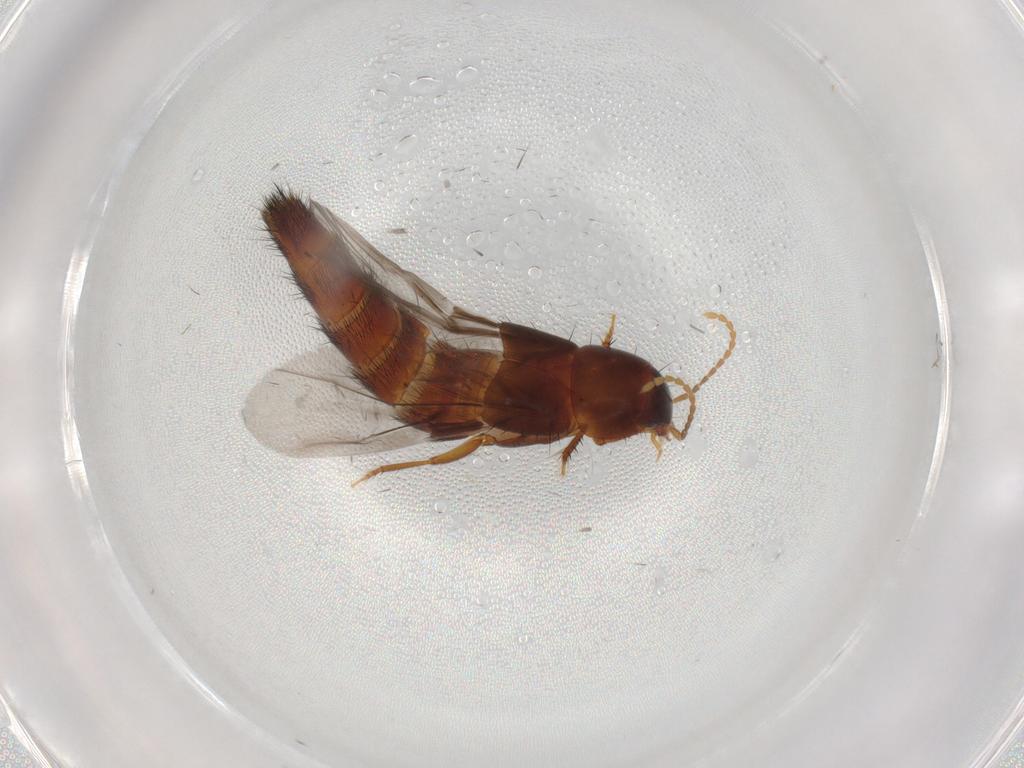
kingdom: Animalia
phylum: Arthropoda
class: Insecta
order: Coleoptera
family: Staphylinidae
